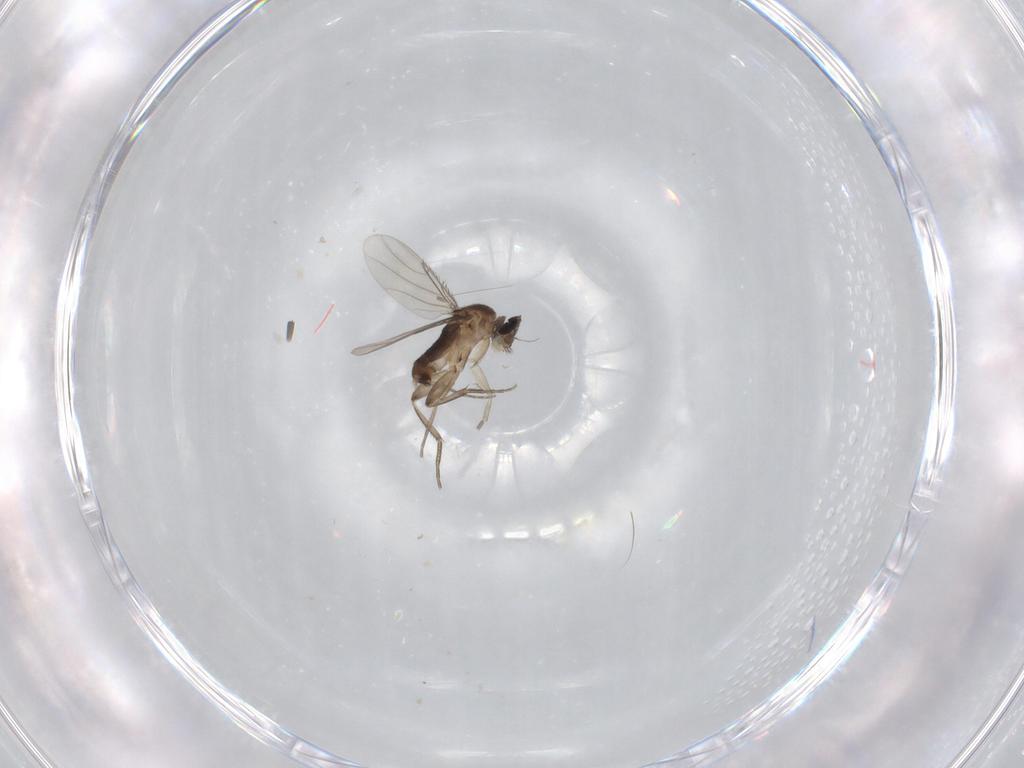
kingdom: Animalia
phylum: Arthropoda
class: Insecta
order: Diptera
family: Phoridae
